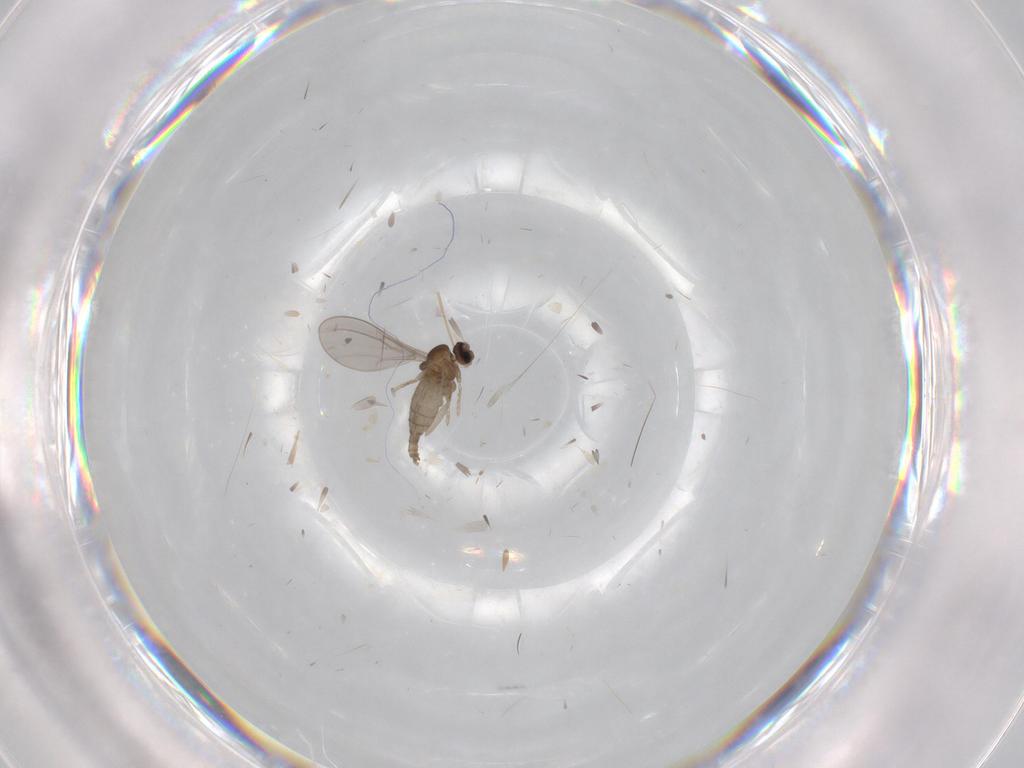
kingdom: Animalia
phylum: Arthropoda
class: Insecta
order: Diptera
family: Cecidomyiidae
